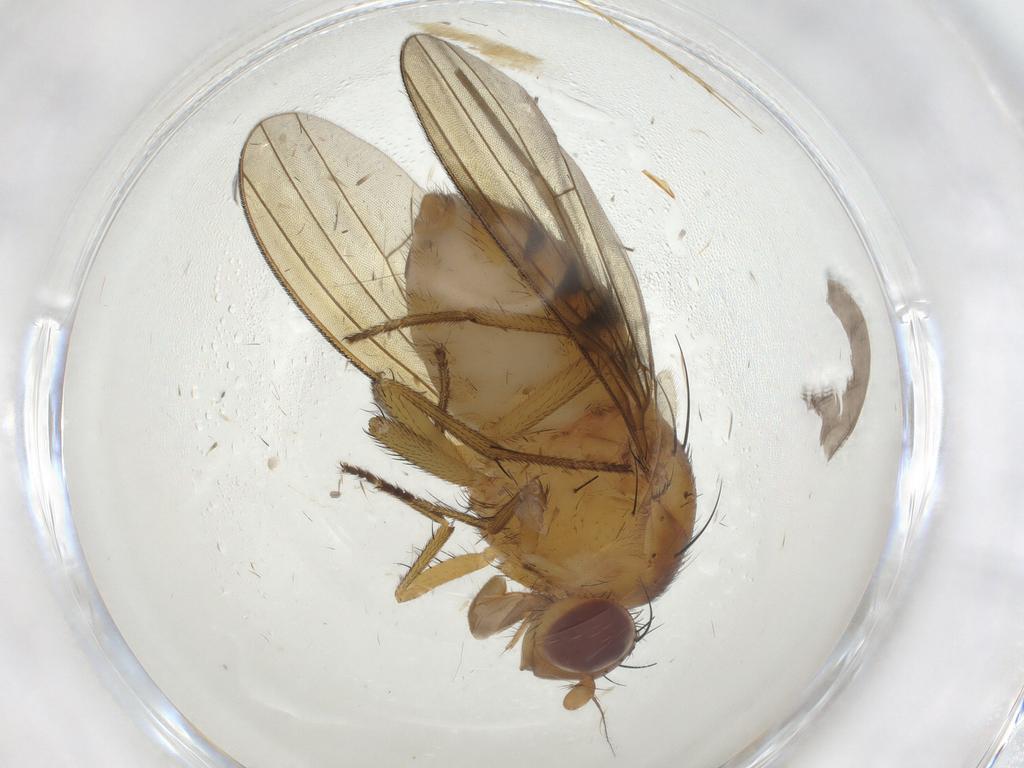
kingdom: Animalia
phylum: Arthropoda
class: Insecta
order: Diptera
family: Sciaridae
